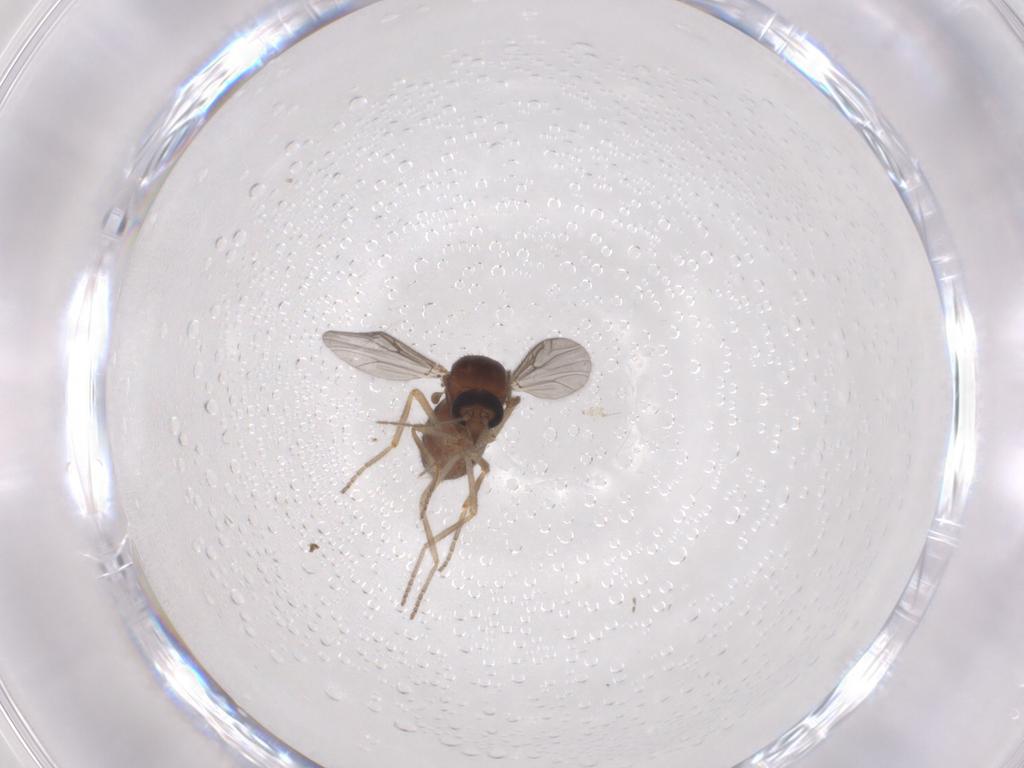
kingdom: Animalia
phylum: Arthropoda
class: Insecta
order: Diptera
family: Ceratopogonidae
